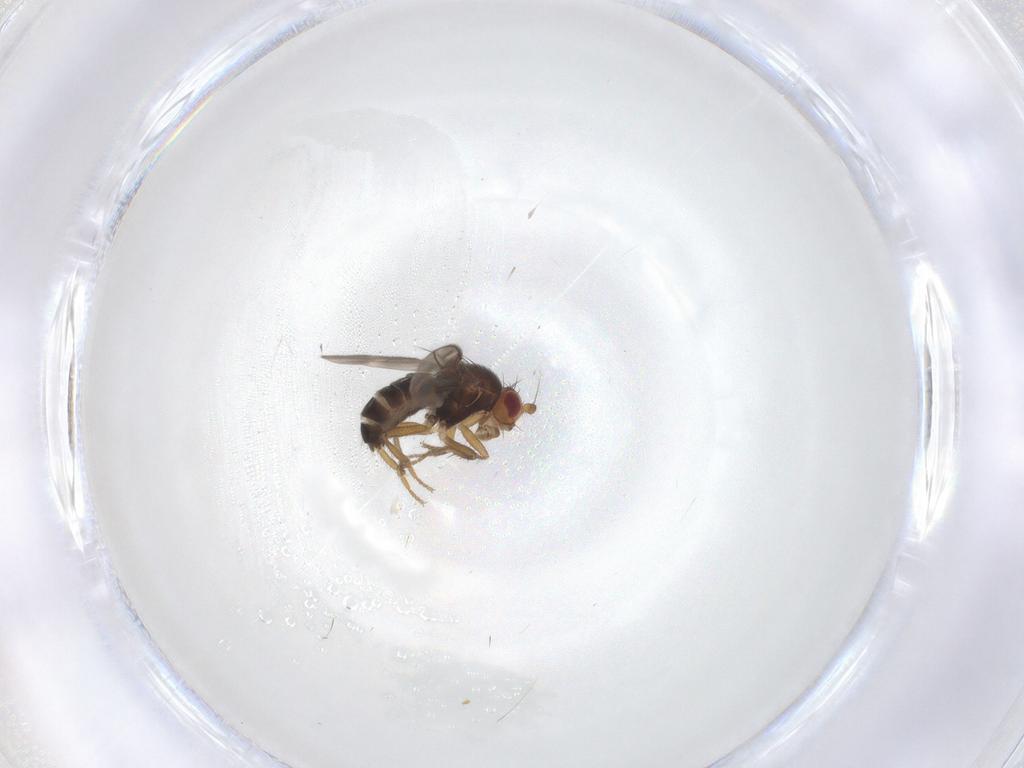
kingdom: Animalia
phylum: Arthropoda
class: Insecta
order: Diptera
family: Sphaeroceridae
